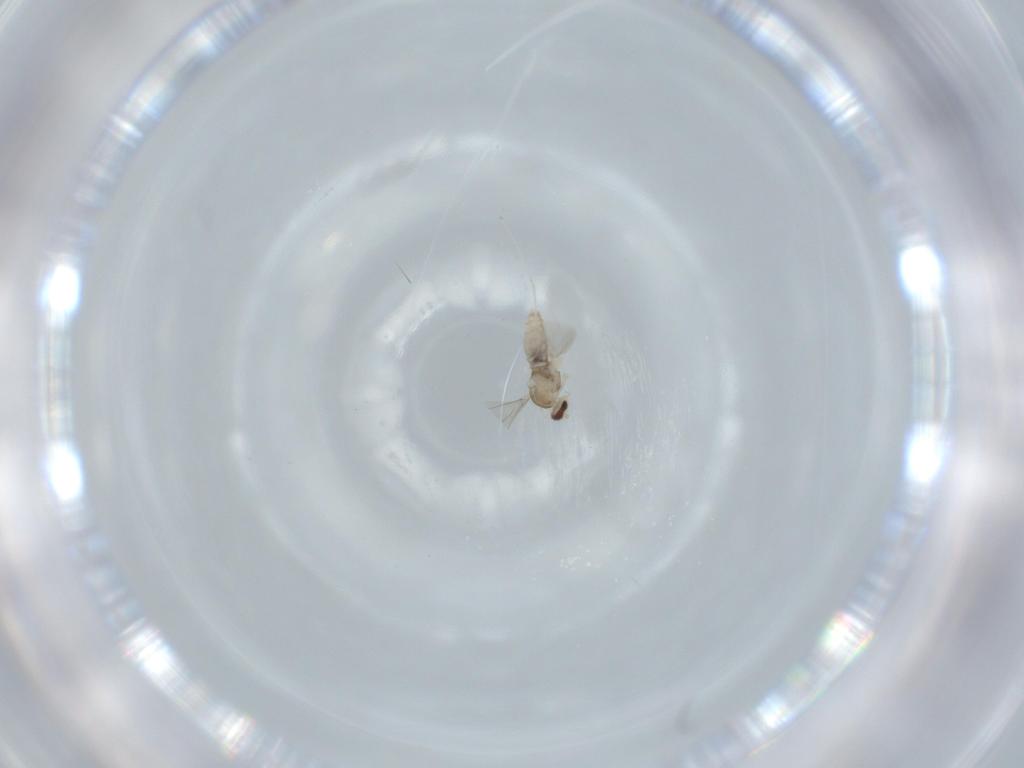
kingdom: Animalia
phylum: Arthropoda
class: Insecta
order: Diptera
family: Cecidomyiidae
